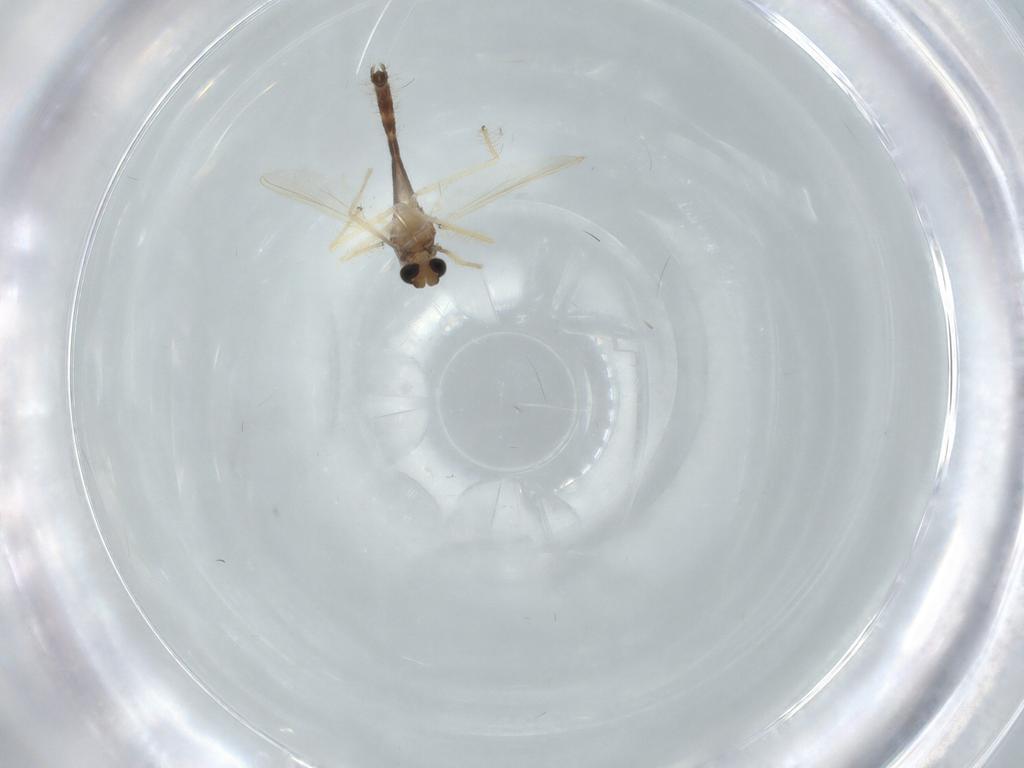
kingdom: Animalia
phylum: Arthropoda
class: Insecta
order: Diptera
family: Chironomidae
